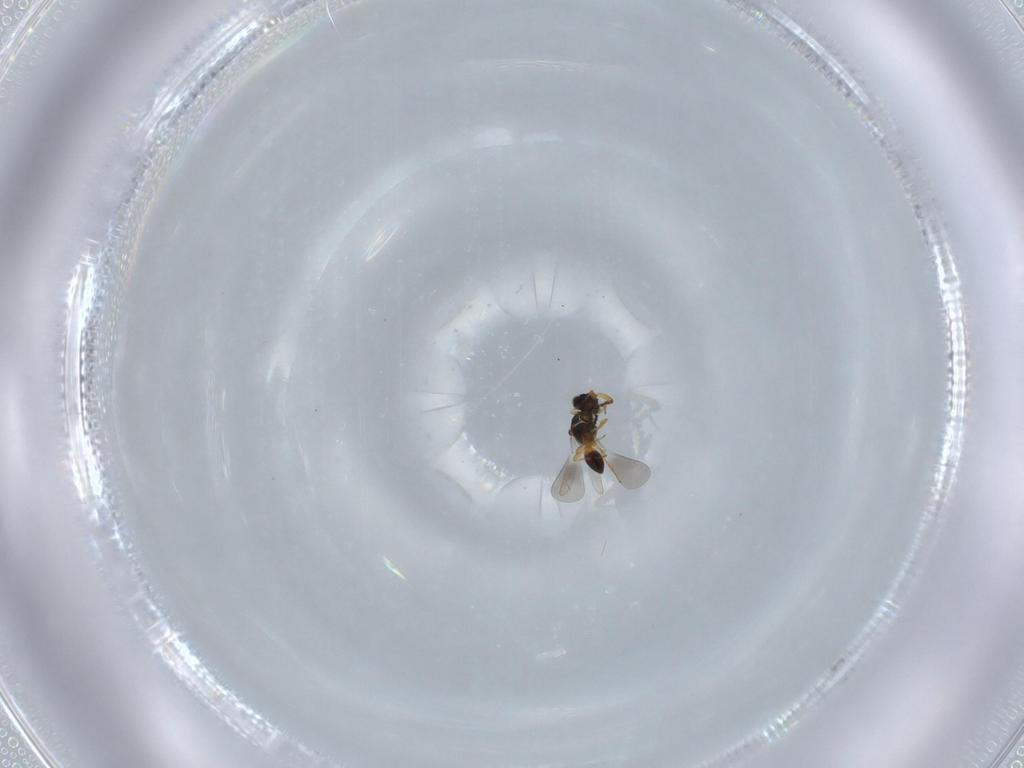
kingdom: Animalia
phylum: Arthropoda
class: Insecta
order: Hymenoptera
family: Platygastridae
